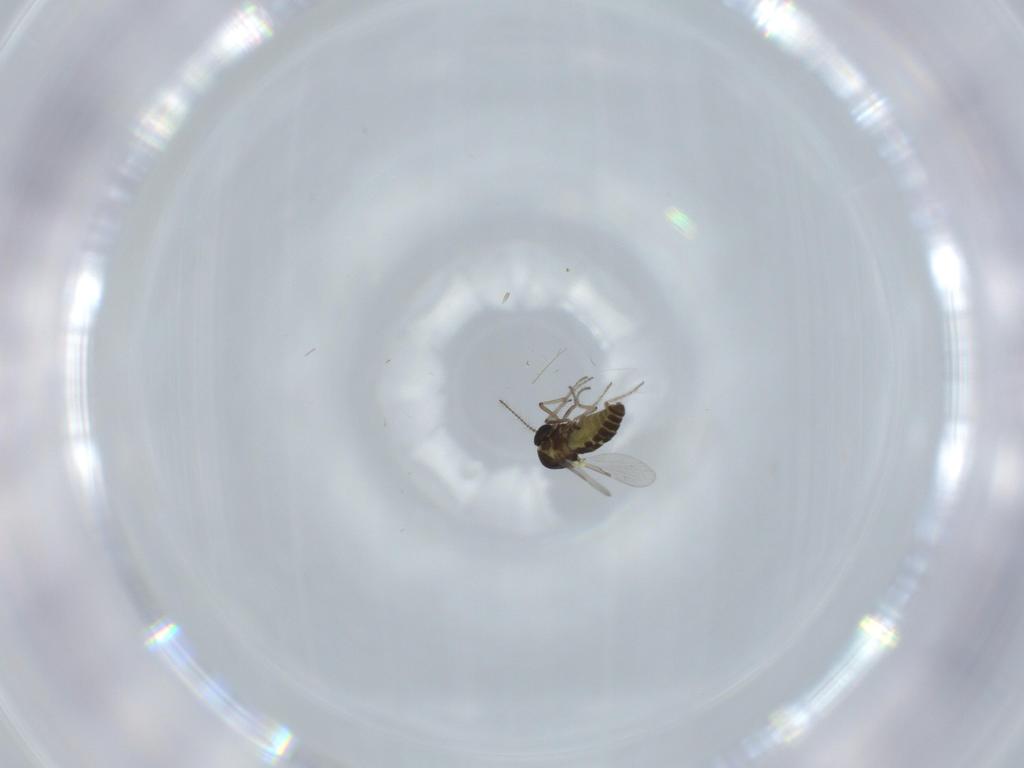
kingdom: Animalia
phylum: Arthropoda
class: Insecta
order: Diptera
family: Ceratopogonidae
